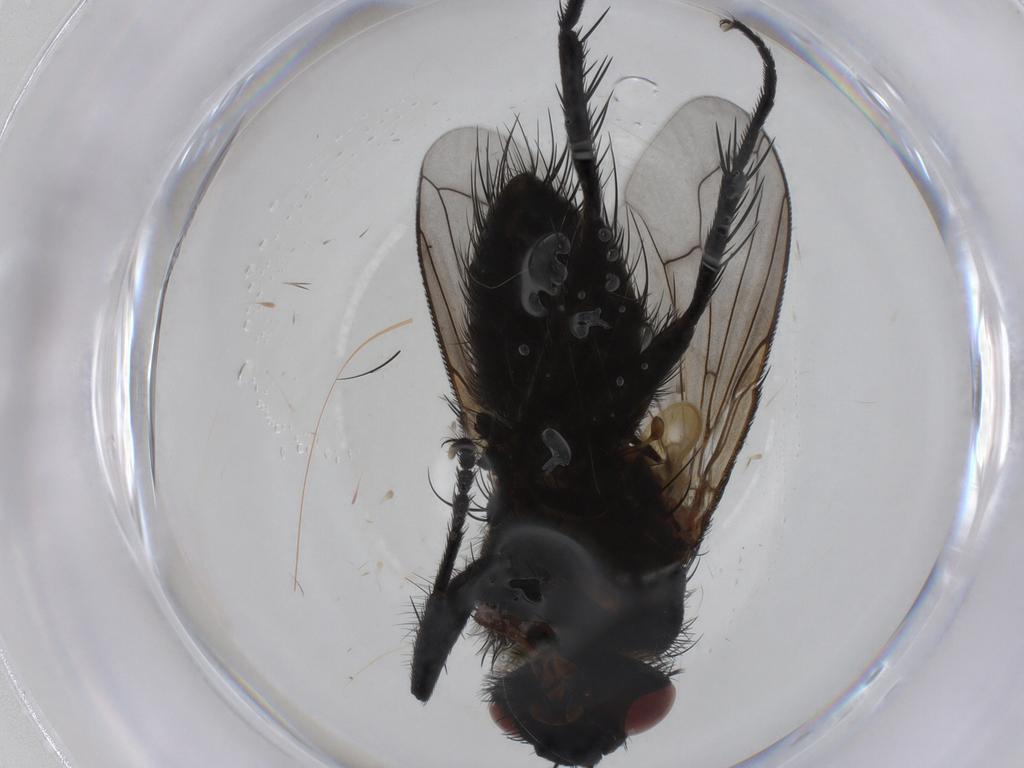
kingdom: Animalia
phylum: Arthropoda
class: Insecta
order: Diptera
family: Tachinidae
